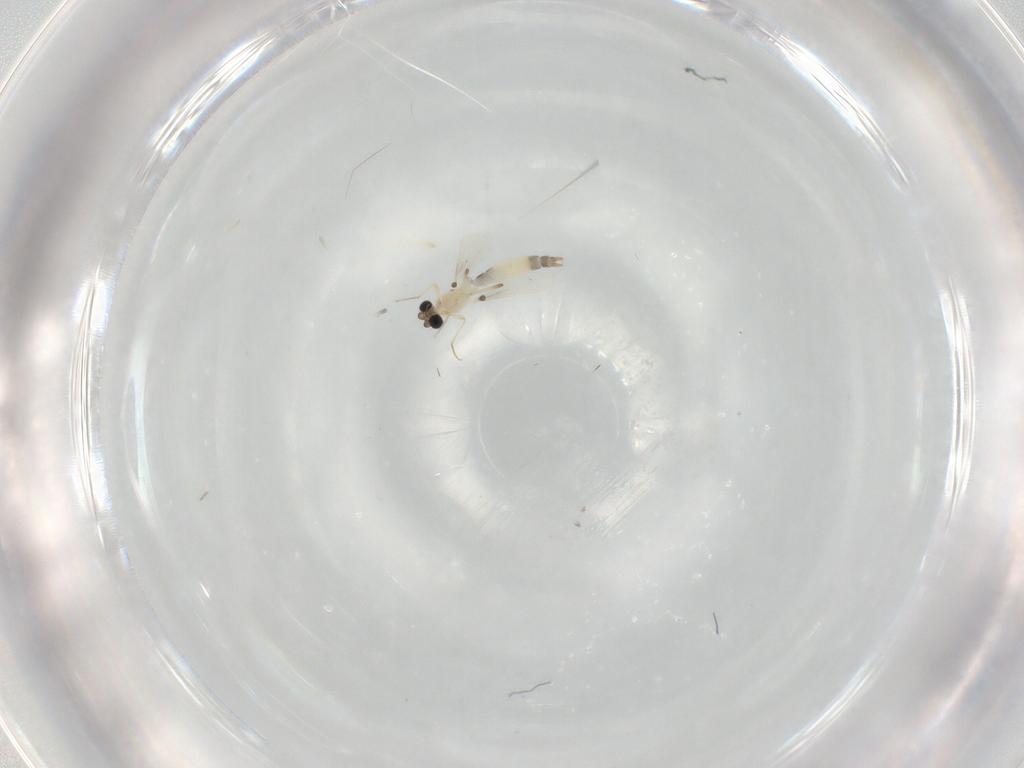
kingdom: Animalia
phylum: Arthropoda
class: Insecta
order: Diptera
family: Chironomidae
